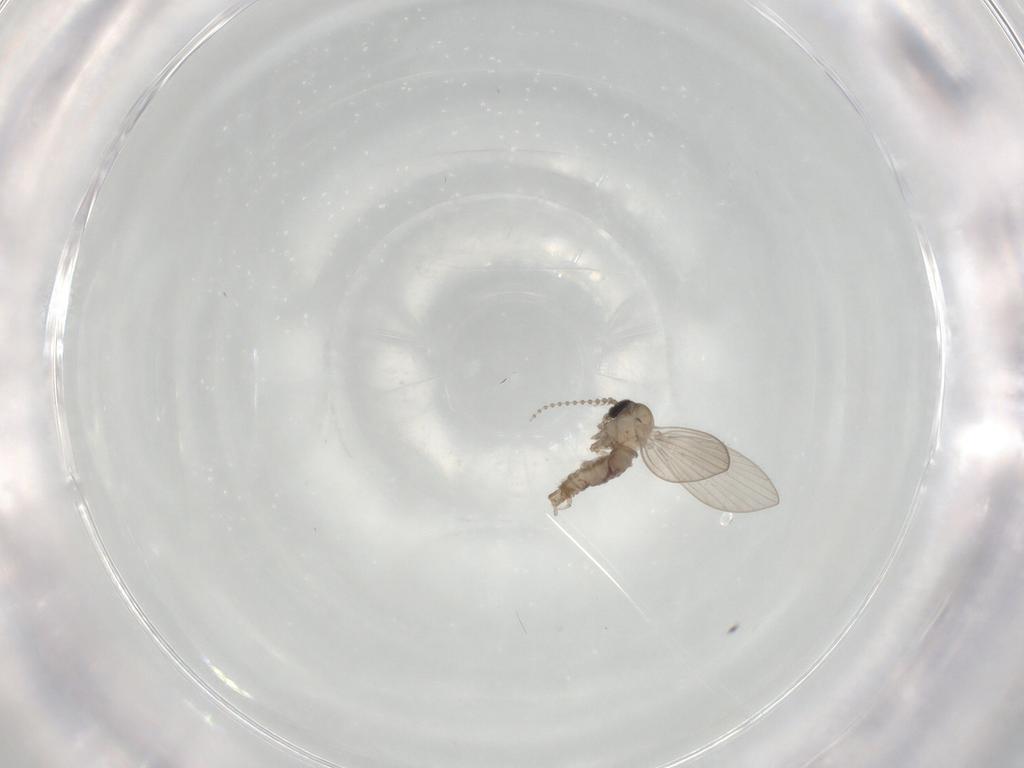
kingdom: Animalia
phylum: Arthropoda
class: Insecta
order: Diptera
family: Psychodidae
